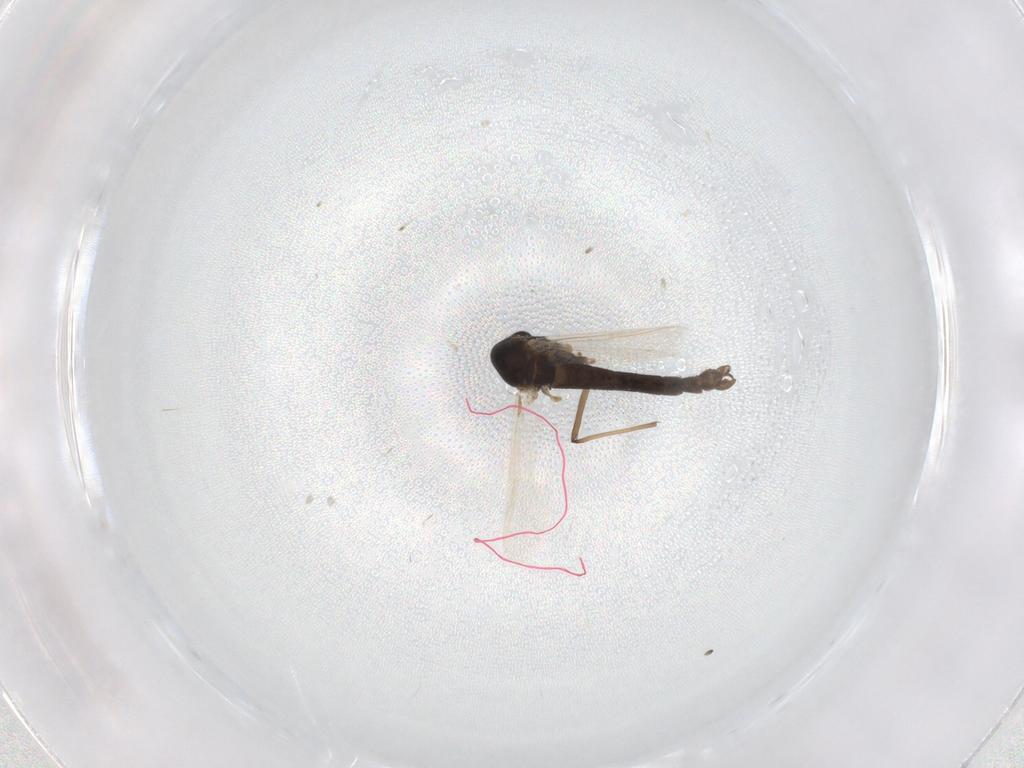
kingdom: Animalia
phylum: Arthropoda
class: Insecta
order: Diptera
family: Chironomidae
